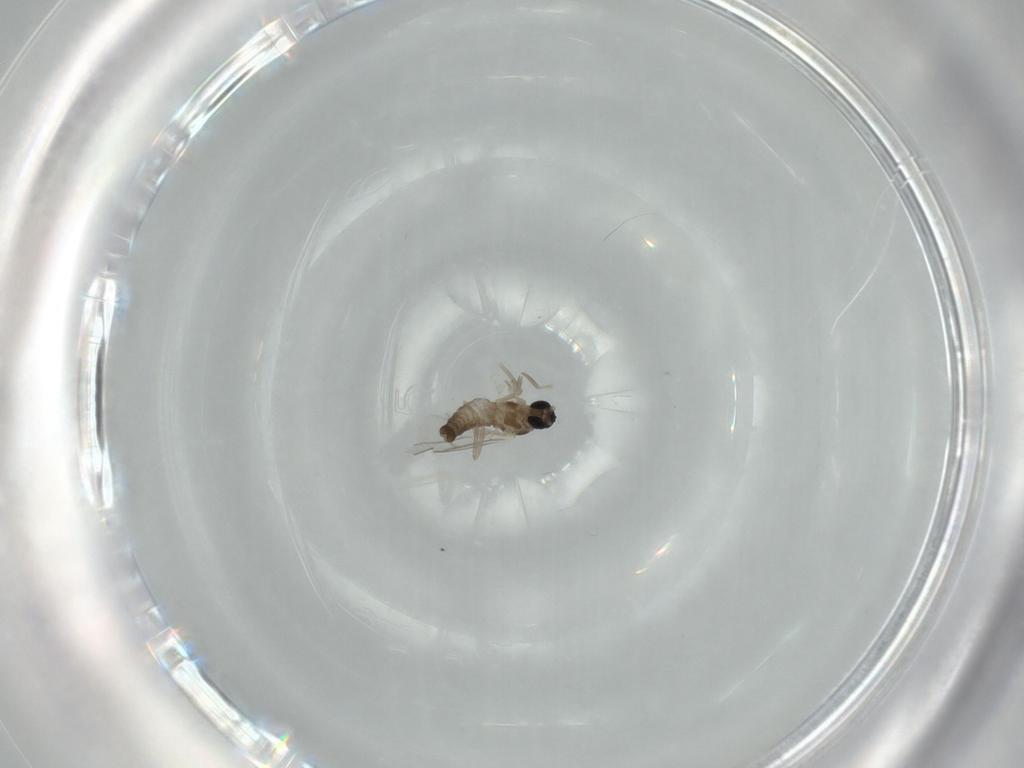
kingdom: Animalia
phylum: Arthropoda
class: Insecta
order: Diptera
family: Cecidomyiidae
